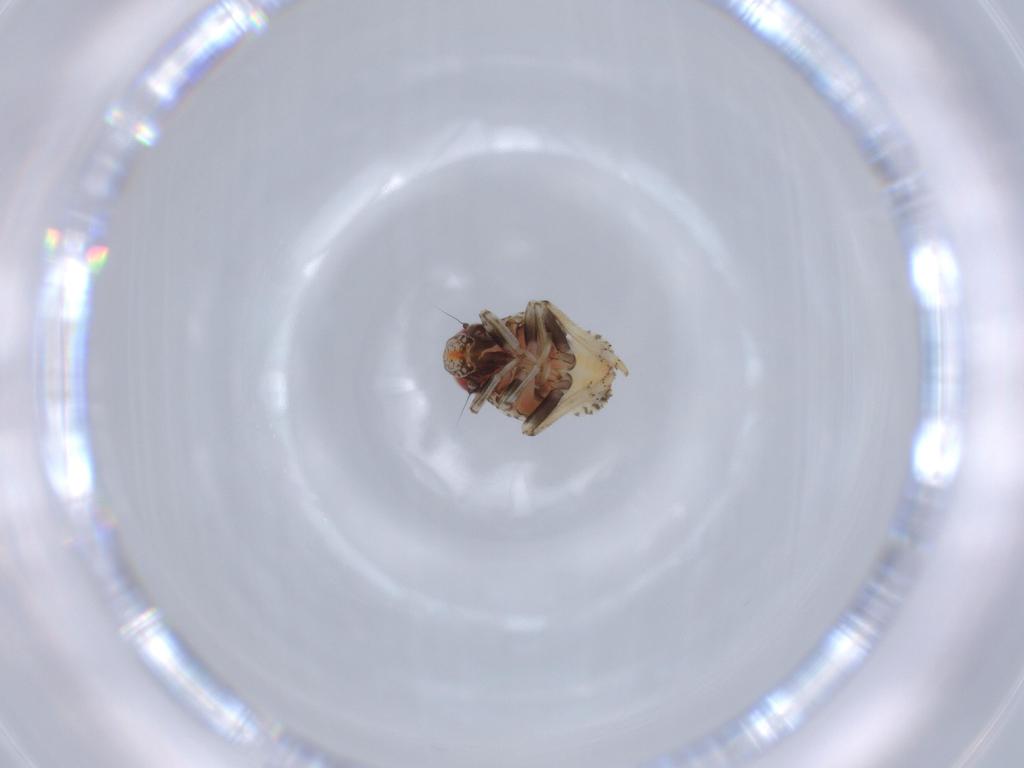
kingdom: Animalia
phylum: Arthropoda
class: Insecta
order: Hemiptera
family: Issidae
